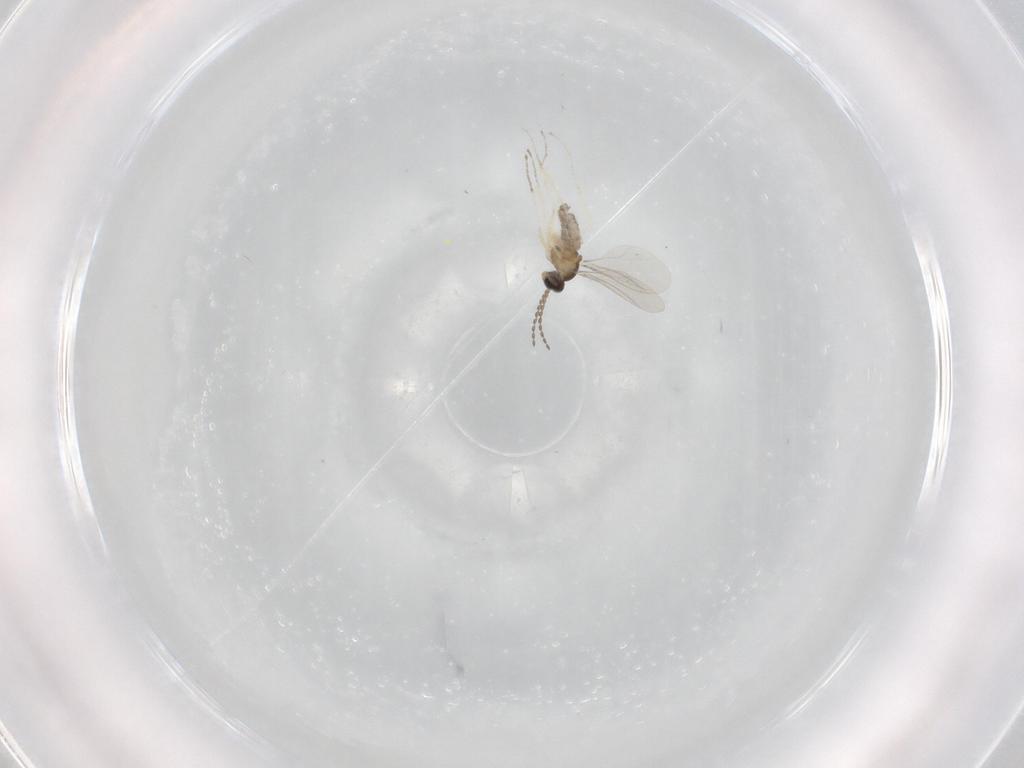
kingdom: Animalia
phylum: Arthropoda
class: Insecta
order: Diptera
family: Cecidomyiidae
